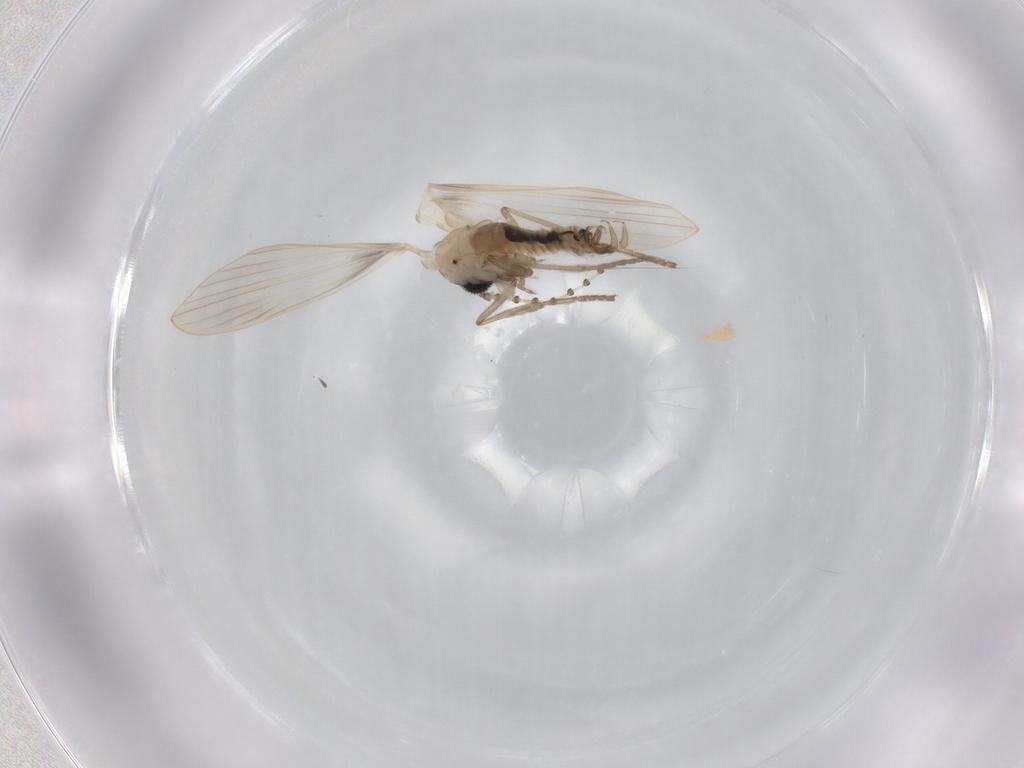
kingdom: Animalia
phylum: Arthropoda
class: Insecta
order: Diptera
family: Psychodidae
